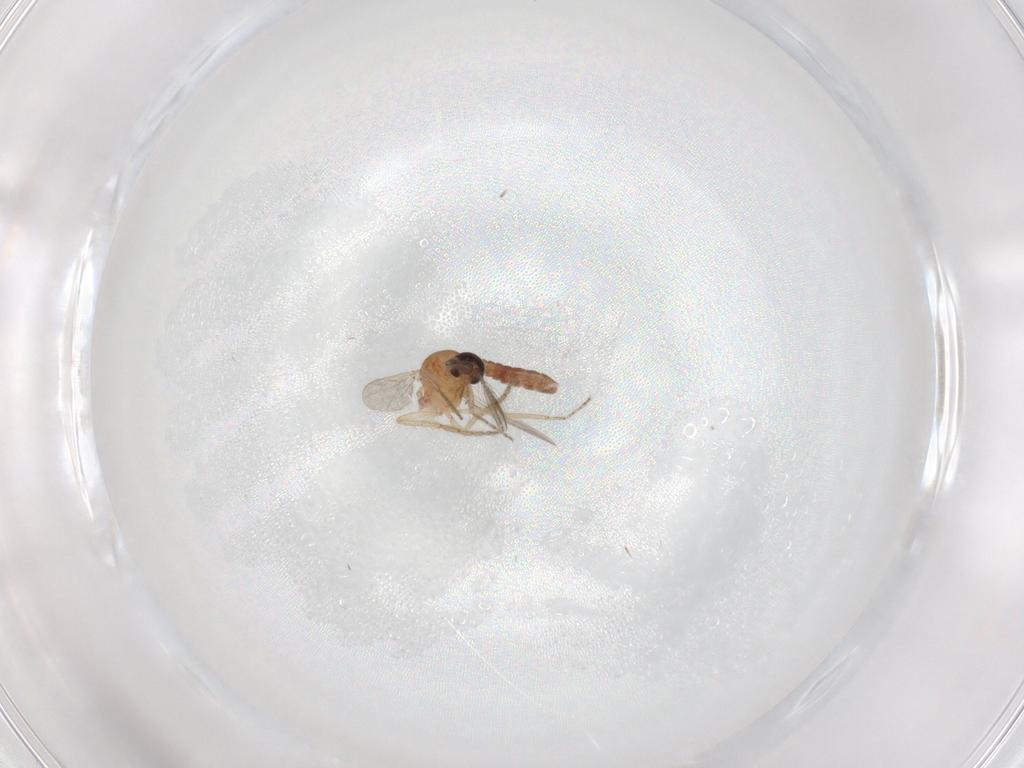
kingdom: Animalia
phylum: Arthropoda
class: Insecta
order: Diptera
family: Ceratopogonidae
